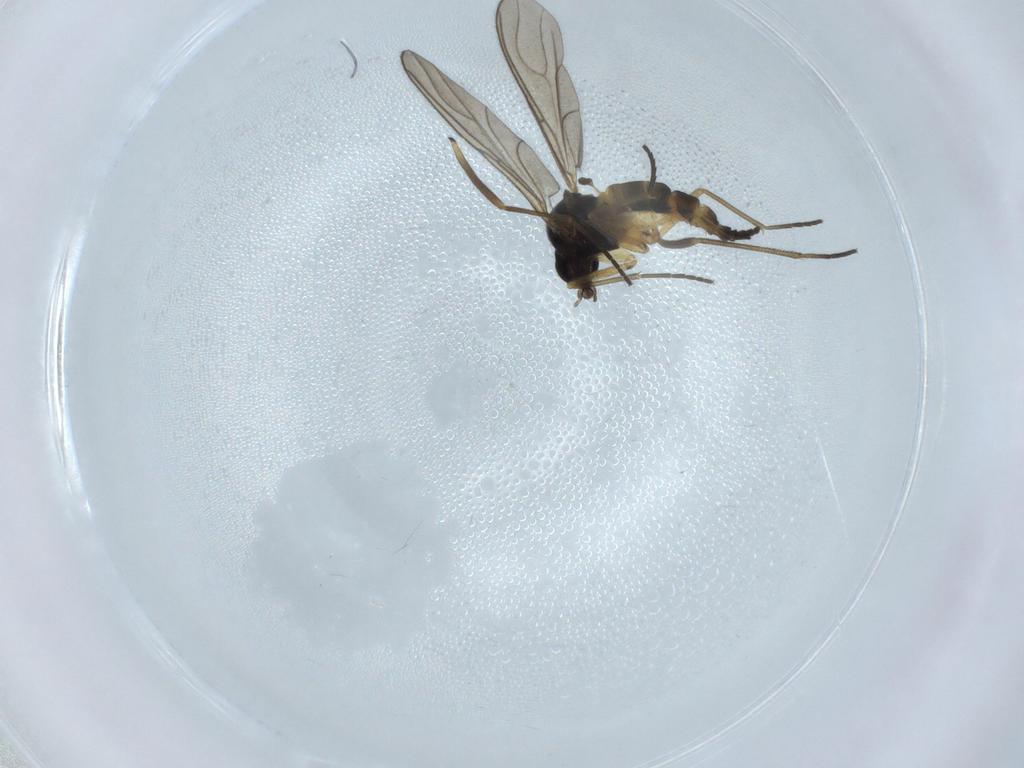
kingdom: Animalia
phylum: Arthropoda
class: Insecta
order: Diptera
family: Sciaridae
